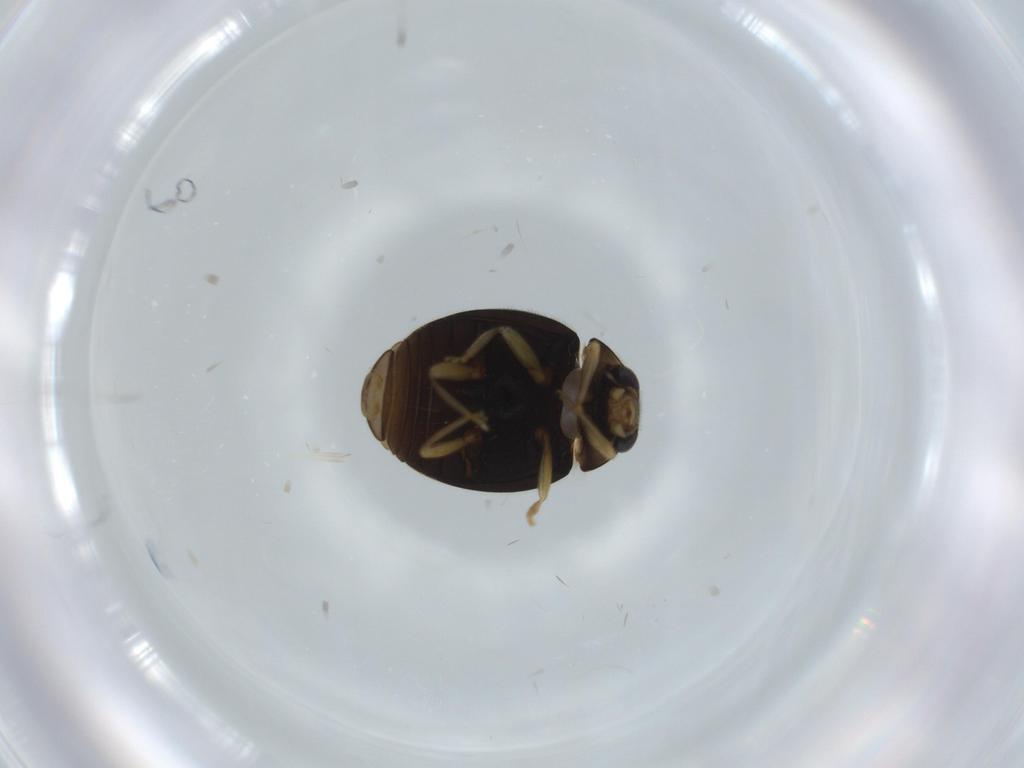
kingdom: Animalia
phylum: Arthropoda
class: Insecta
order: Coleoptera
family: Coccinellidae
